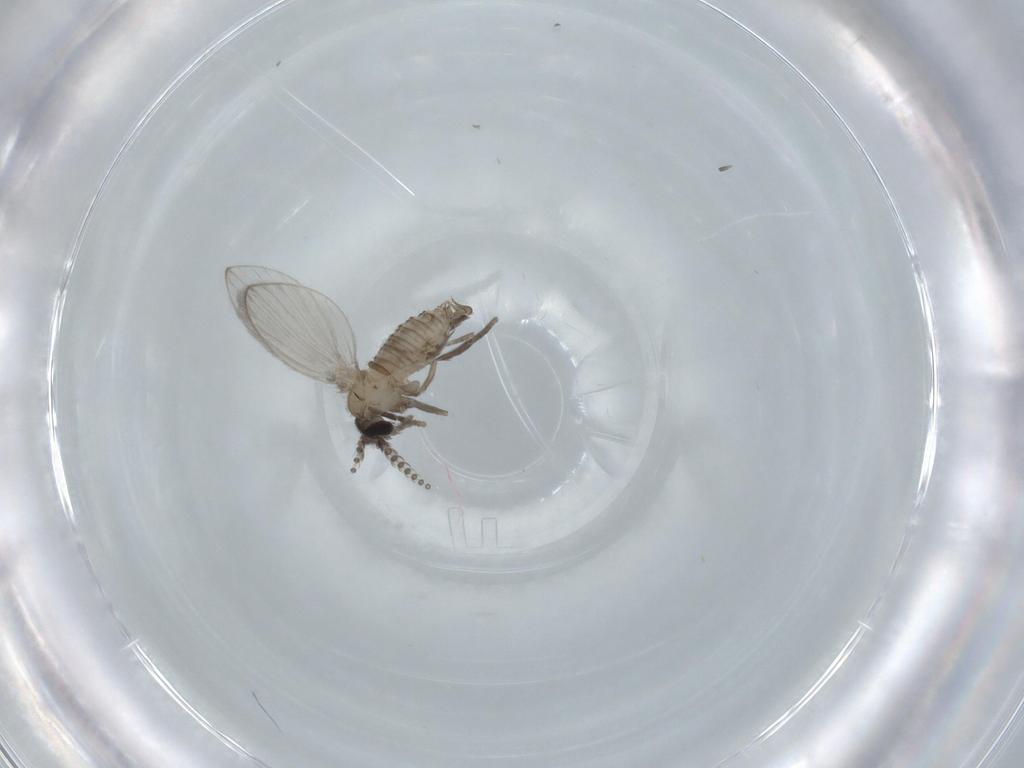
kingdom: Animalia
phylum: Arthropoda
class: Insecta
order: Diptera
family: Psychodidae
